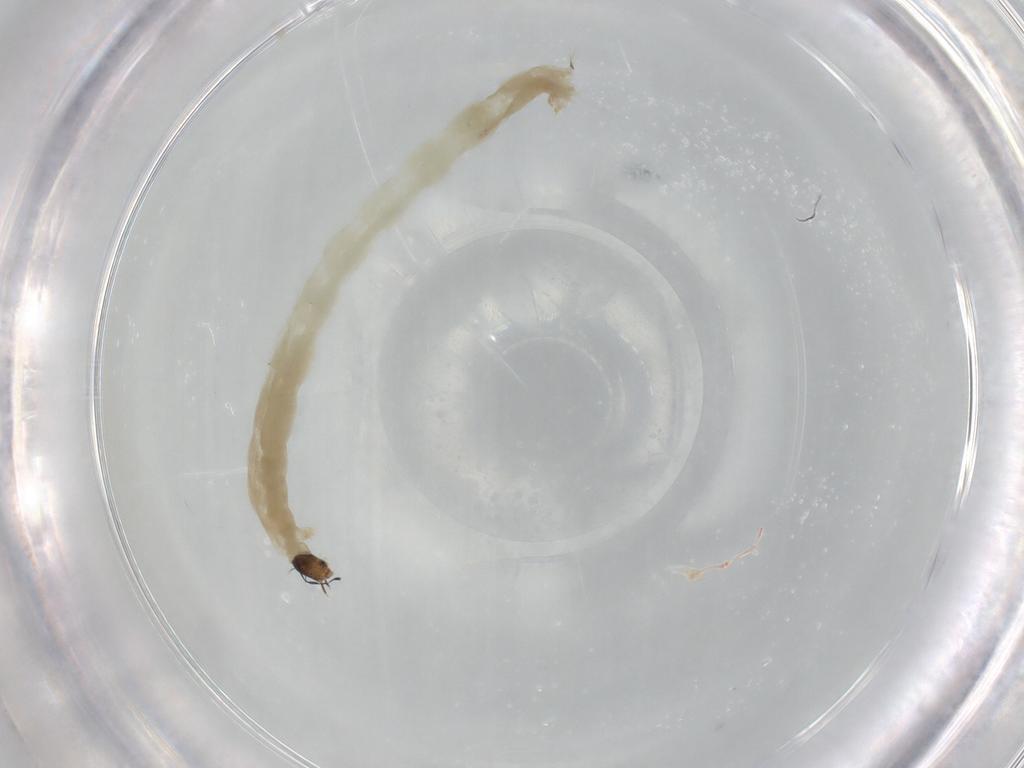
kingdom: Animalia
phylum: Arthropoda
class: Insecta
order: Diptera
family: Chironomidae
